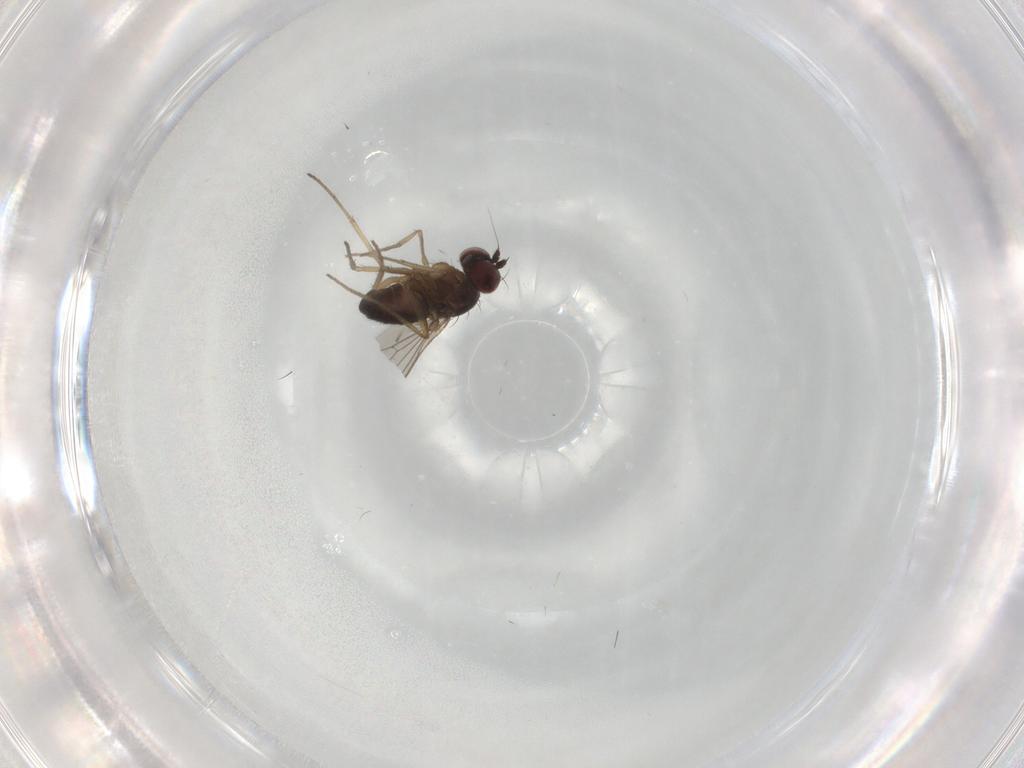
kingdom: Animalia
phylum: Arthropoda
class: Insecta
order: Diptera
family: Dolichopodidae
